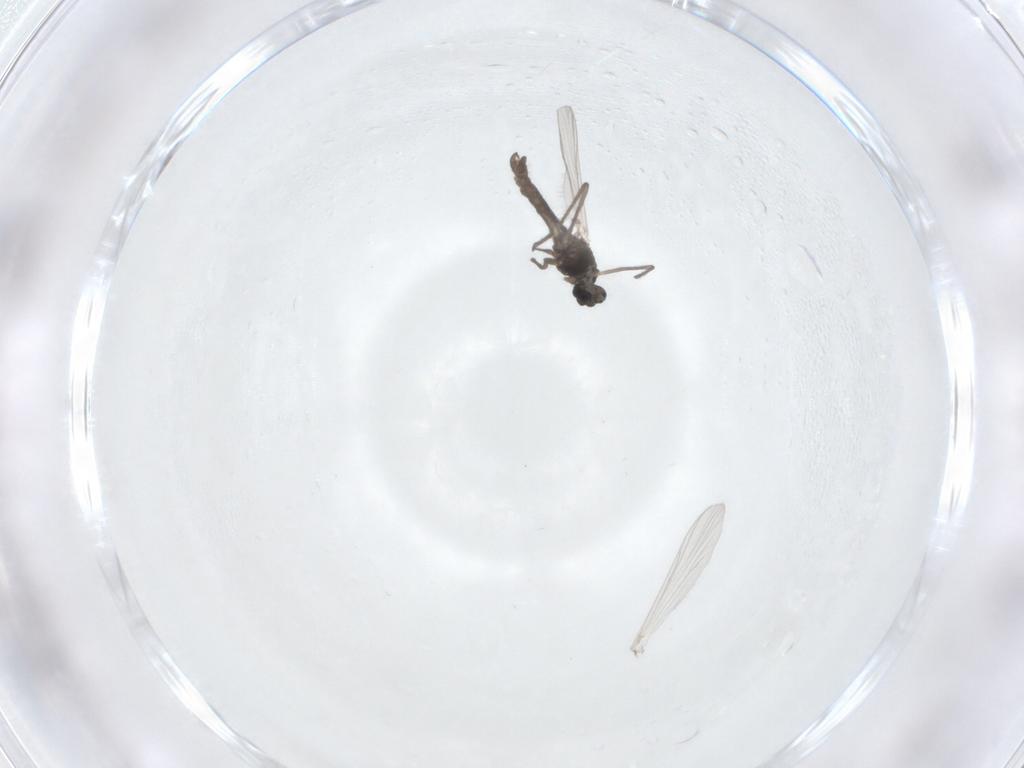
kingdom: Animalia
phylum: Arthropoda
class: Insecta
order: Diptera
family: Chironomidae
